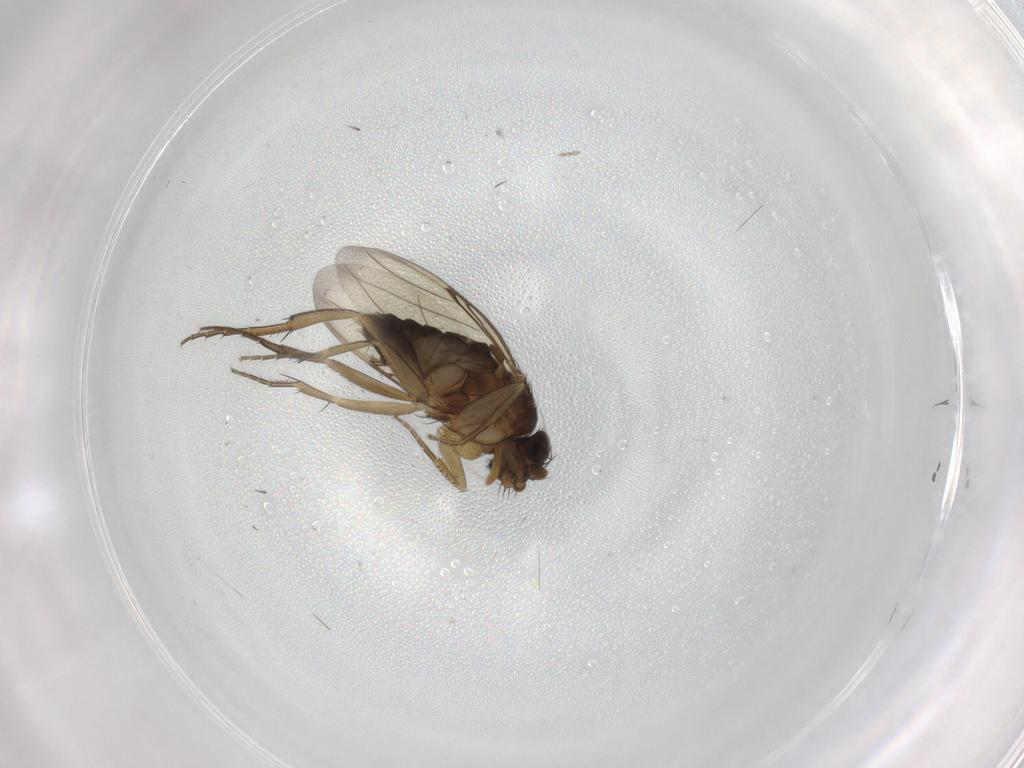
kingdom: Animalia
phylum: Arthropoda
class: Insecta
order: Diptera
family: Phoridae
